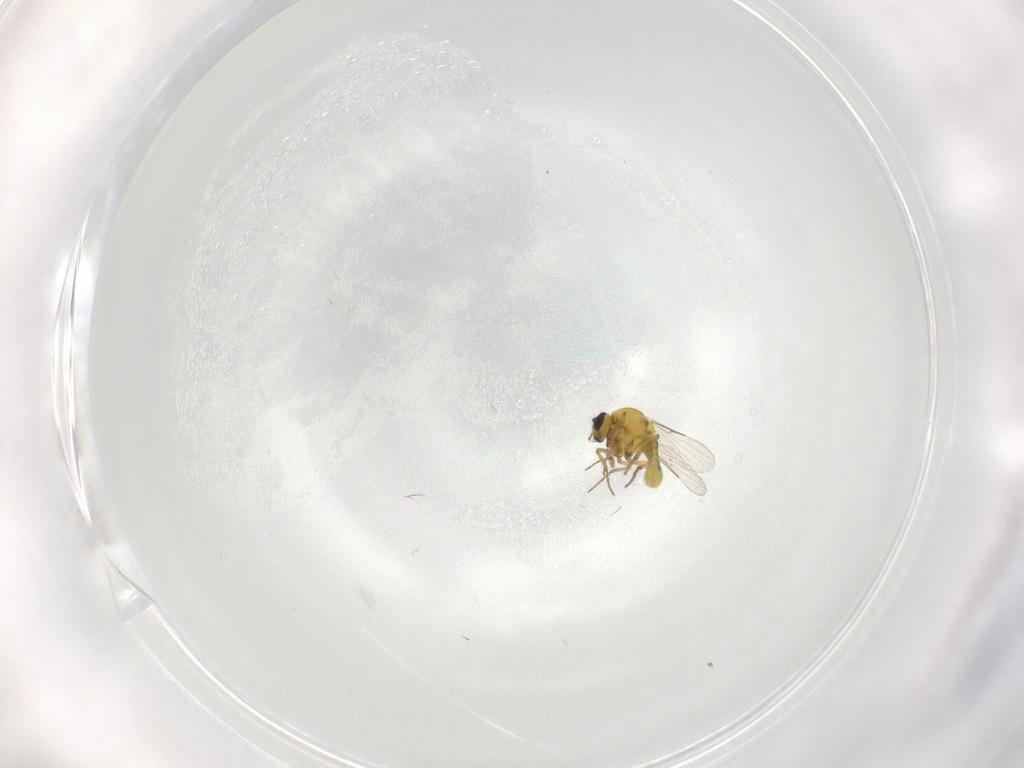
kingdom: Animalia
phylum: Arthropoda
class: Insecta
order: Diptera
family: Ceratopogonidae
